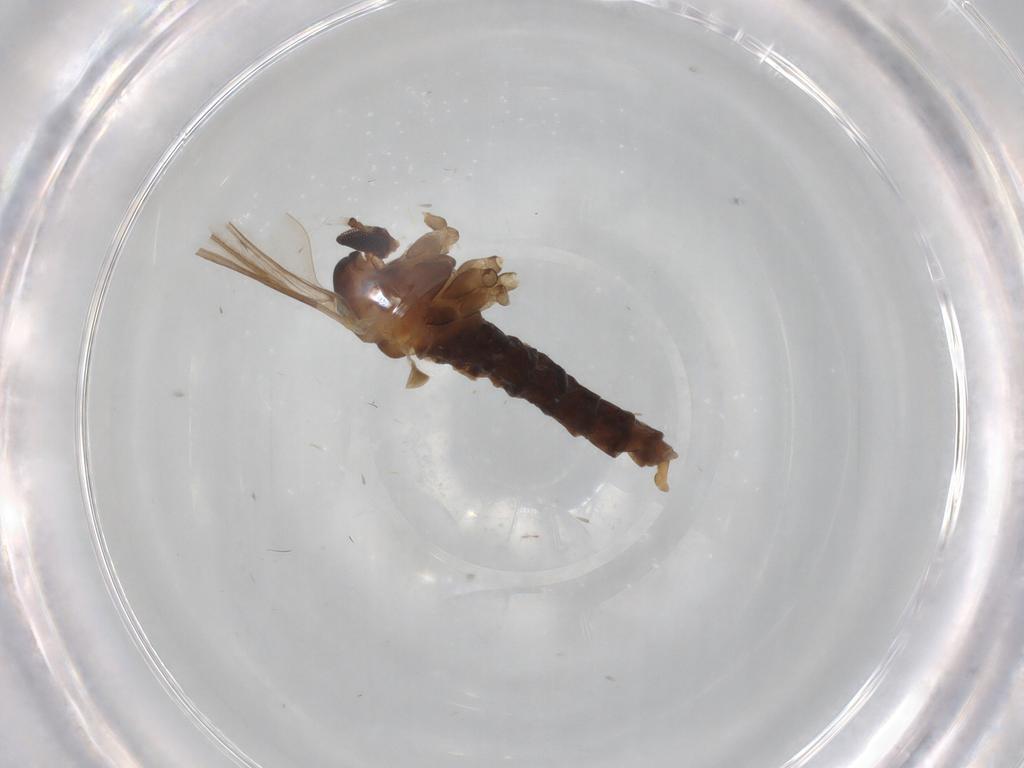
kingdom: Animalia
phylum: Arthropoda
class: Insecta
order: Diptera
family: Cecidomyiidae
